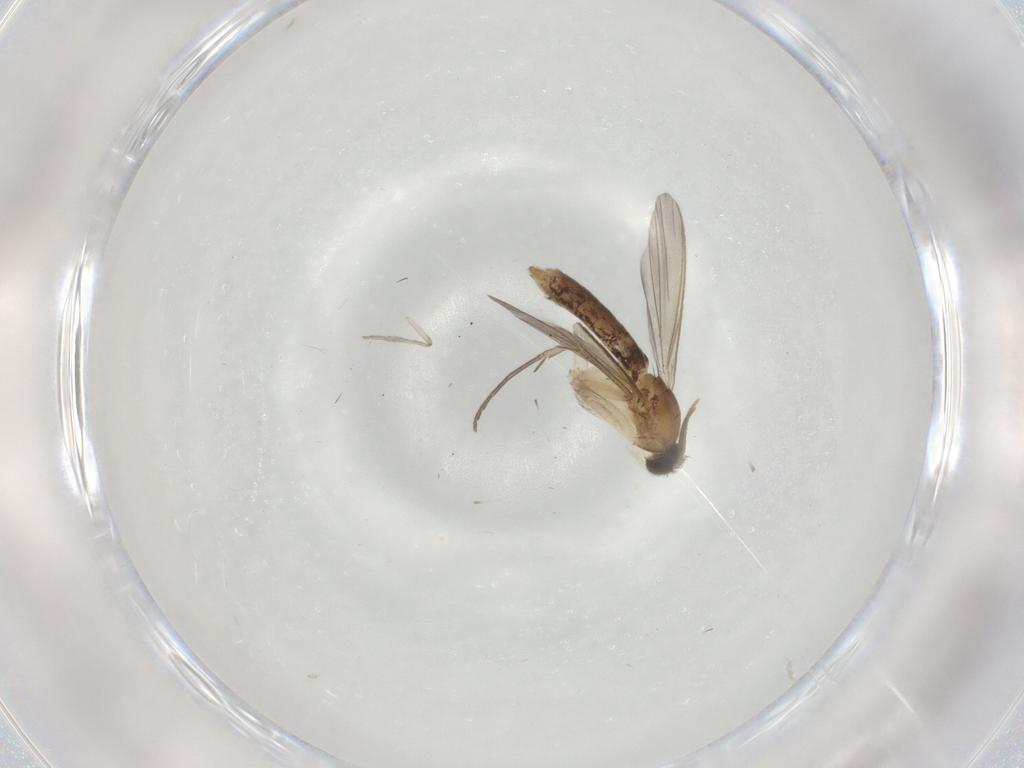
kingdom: Animalia
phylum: Arthropoda
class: Insecta
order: Diptera
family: Mycetophilidae
